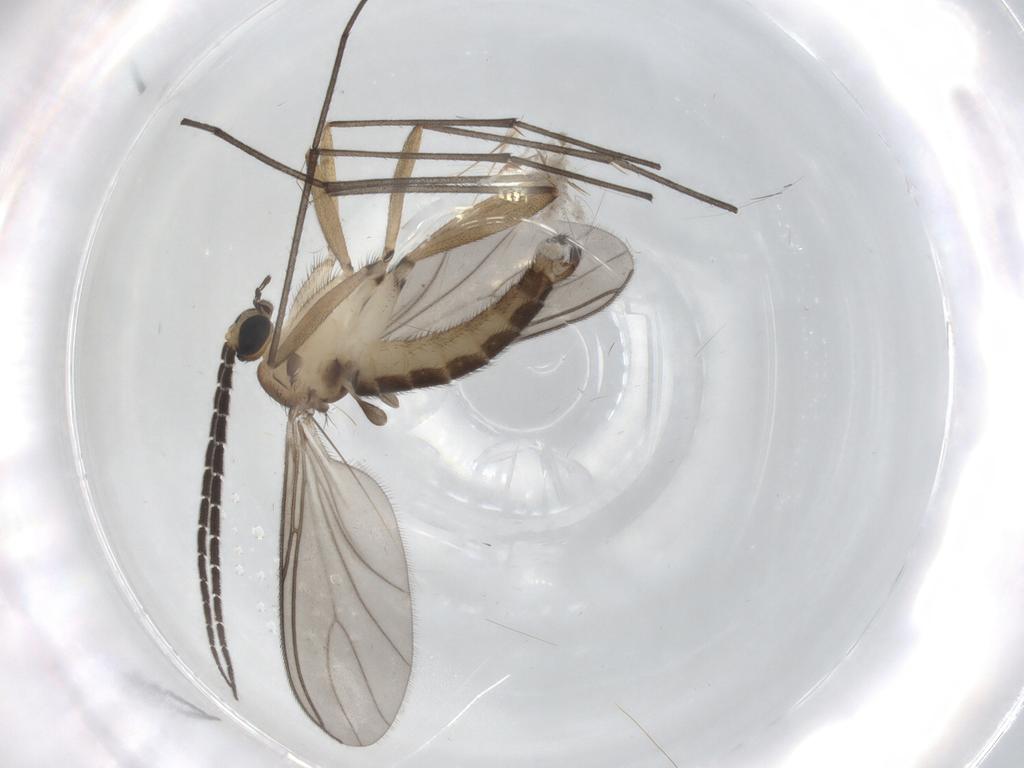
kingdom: Animalia
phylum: Arthropoda
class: Insecta
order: Diptera
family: Sciaridae
